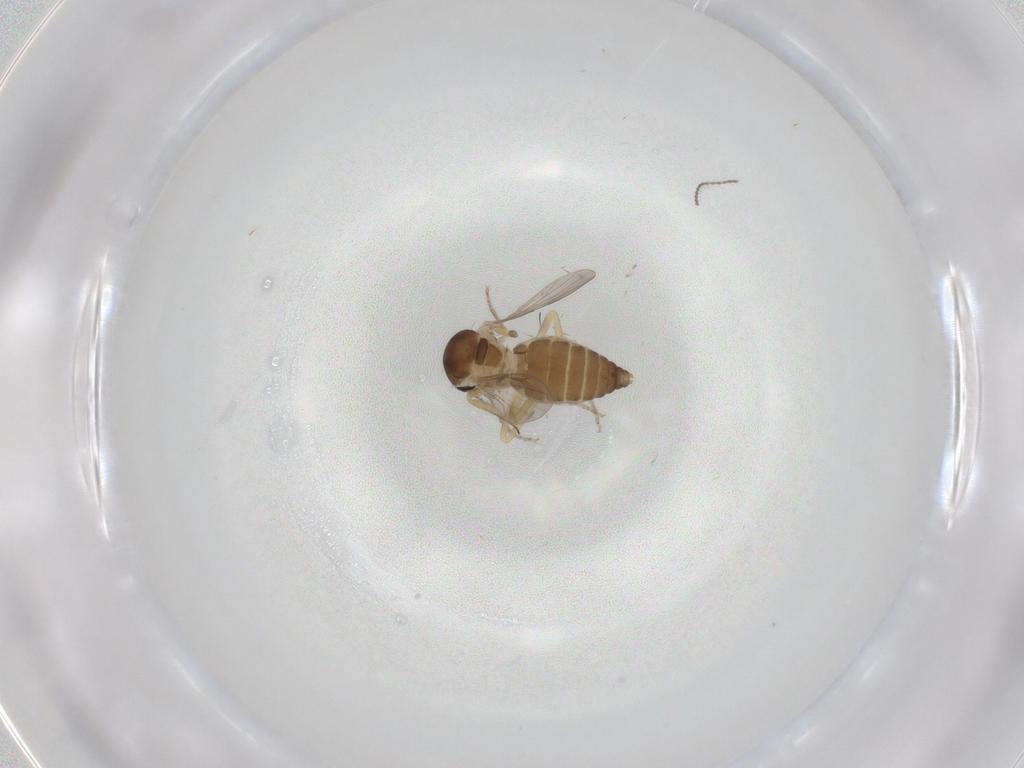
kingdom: Animalia
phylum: Arthropoda
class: Insecta
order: Diptera
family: Ceratopogonidae
